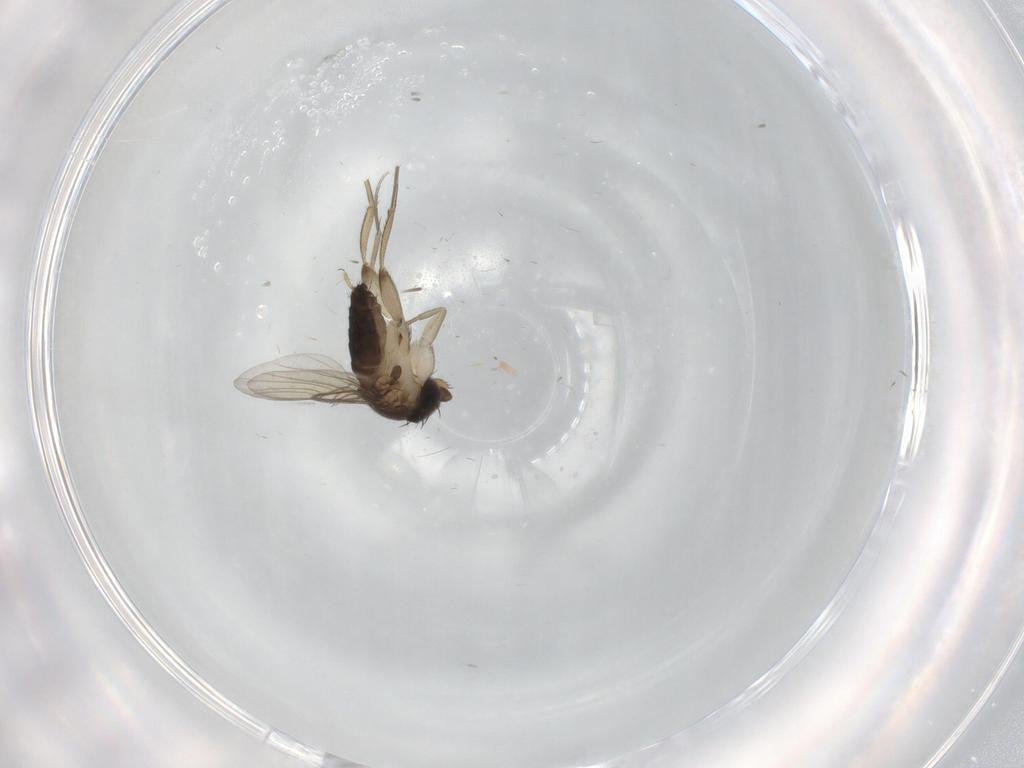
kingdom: Animalia
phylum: Arthropoda
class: Insecta
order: Diptera
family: Phoridae
